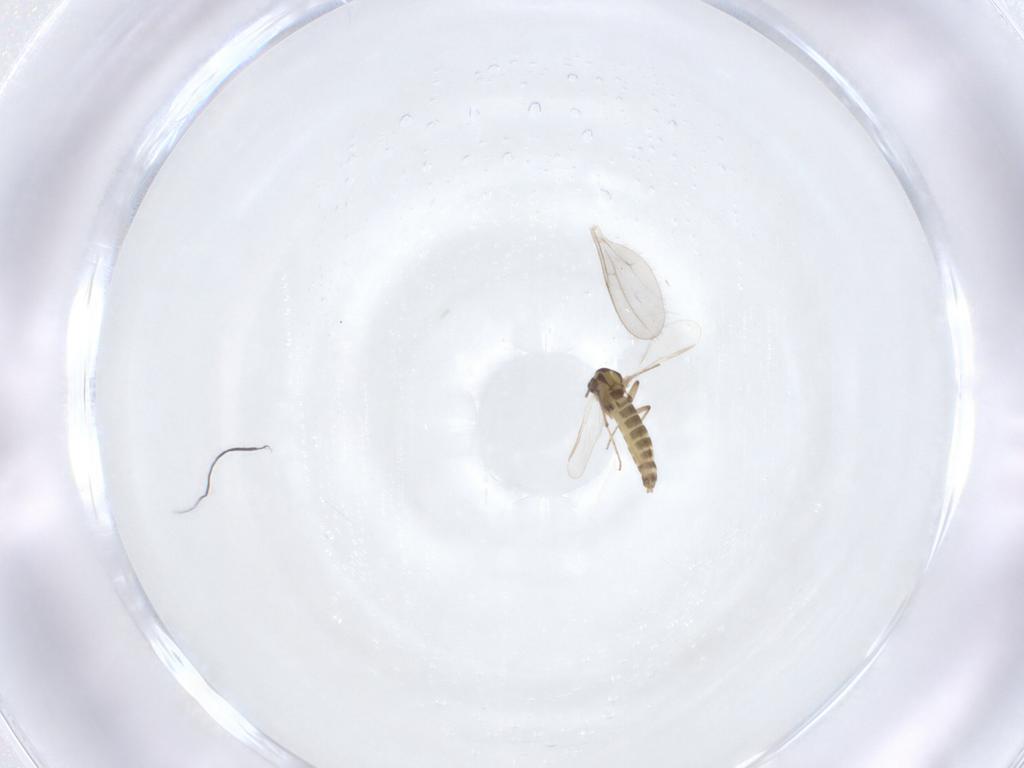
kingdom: Animalia
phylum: Arthropoda
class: Insecta
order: Diptera
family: Chironomidae
